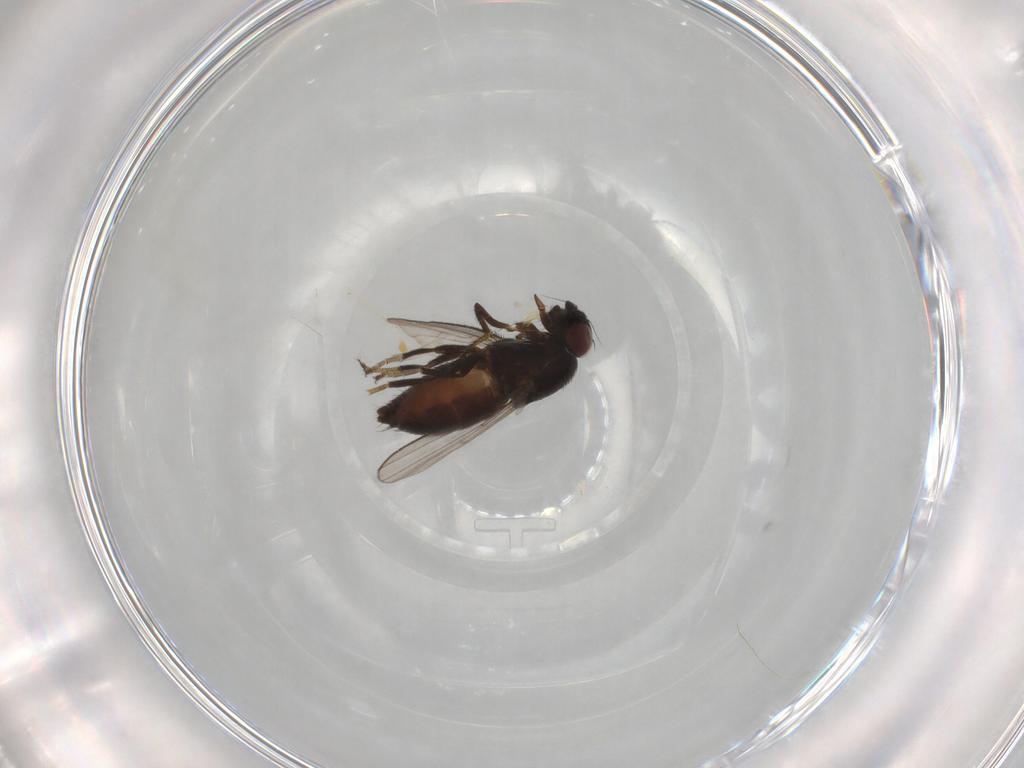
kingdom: Animalia
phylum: Arthropoda
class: Insecta
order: Diptera
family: Milichiidae
